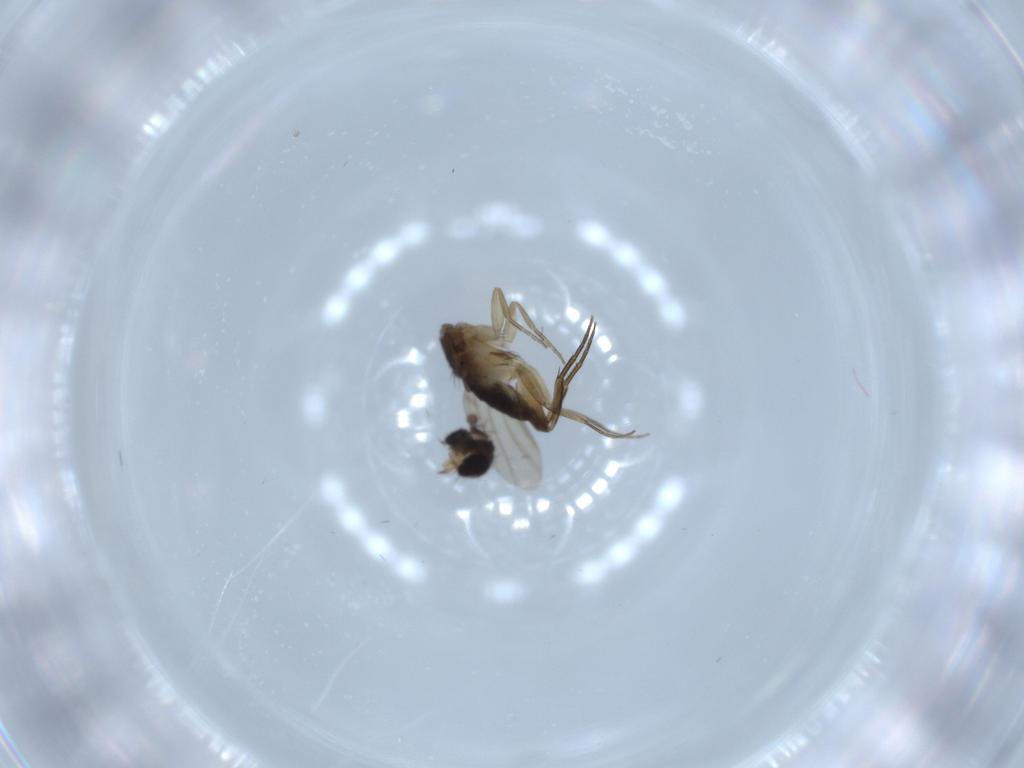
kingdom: Animalia
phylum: Arthropoda
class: Insecta
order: Diptera
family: Phoridae
